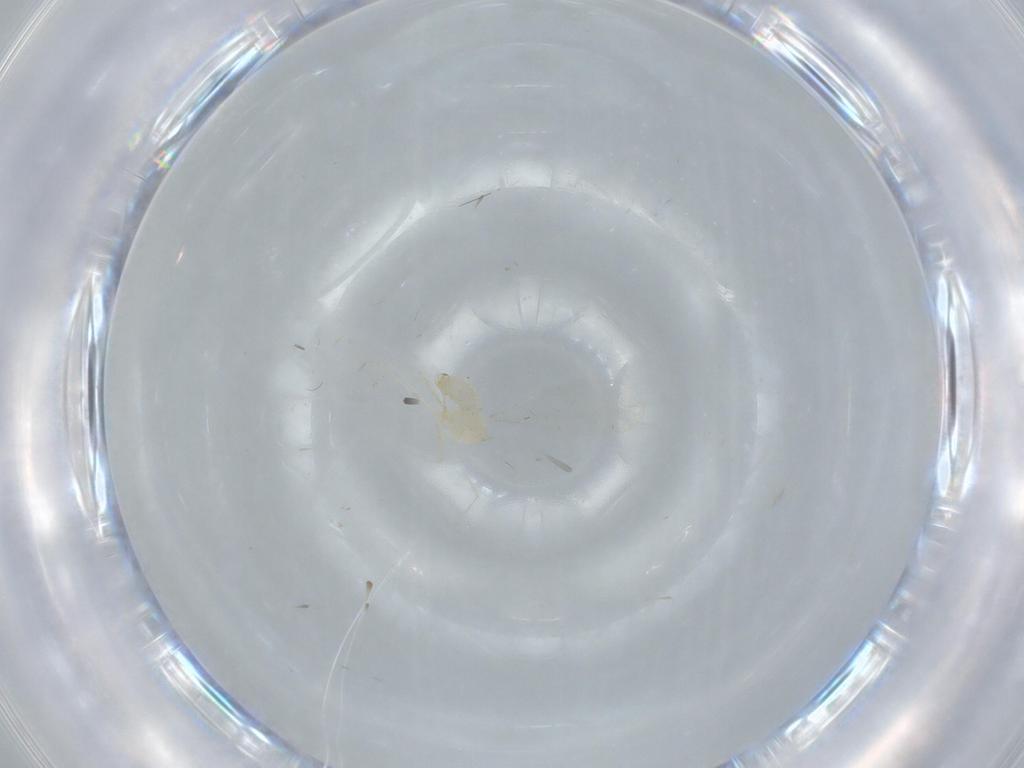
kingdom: Animalia
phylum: Arthropoda
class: Insecta
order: Diptera
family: Cecidomyiidae
